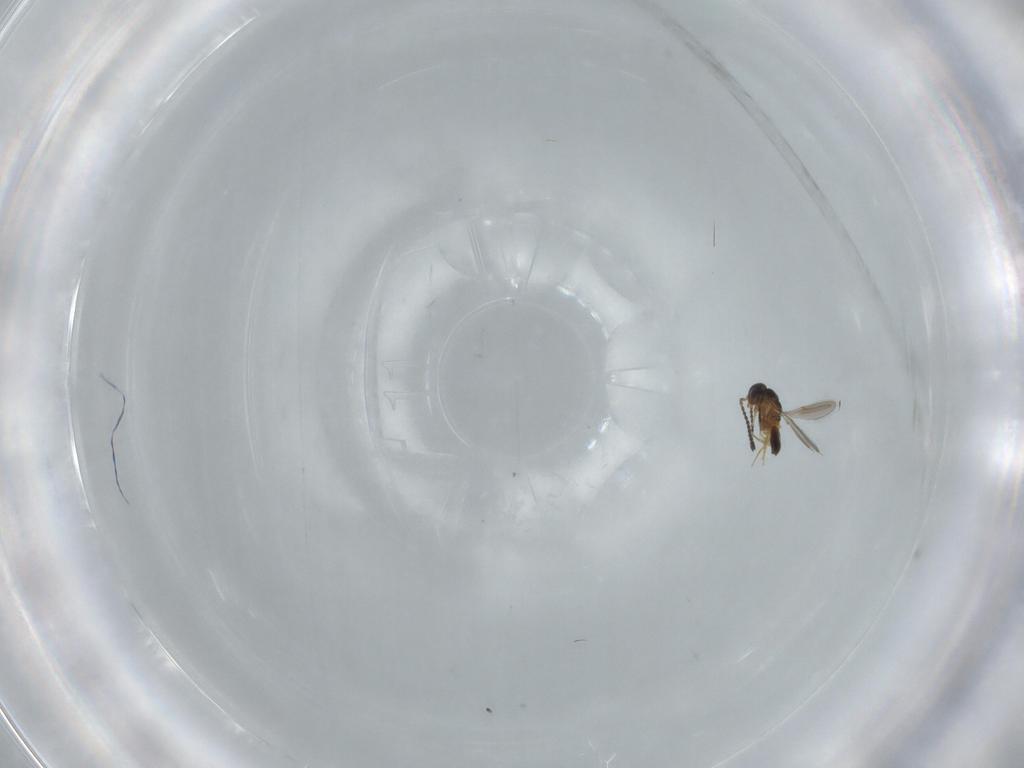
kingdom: Animalia
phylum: Arthropoda
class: Insecta
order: Hymenoptera
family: Scelionidae
